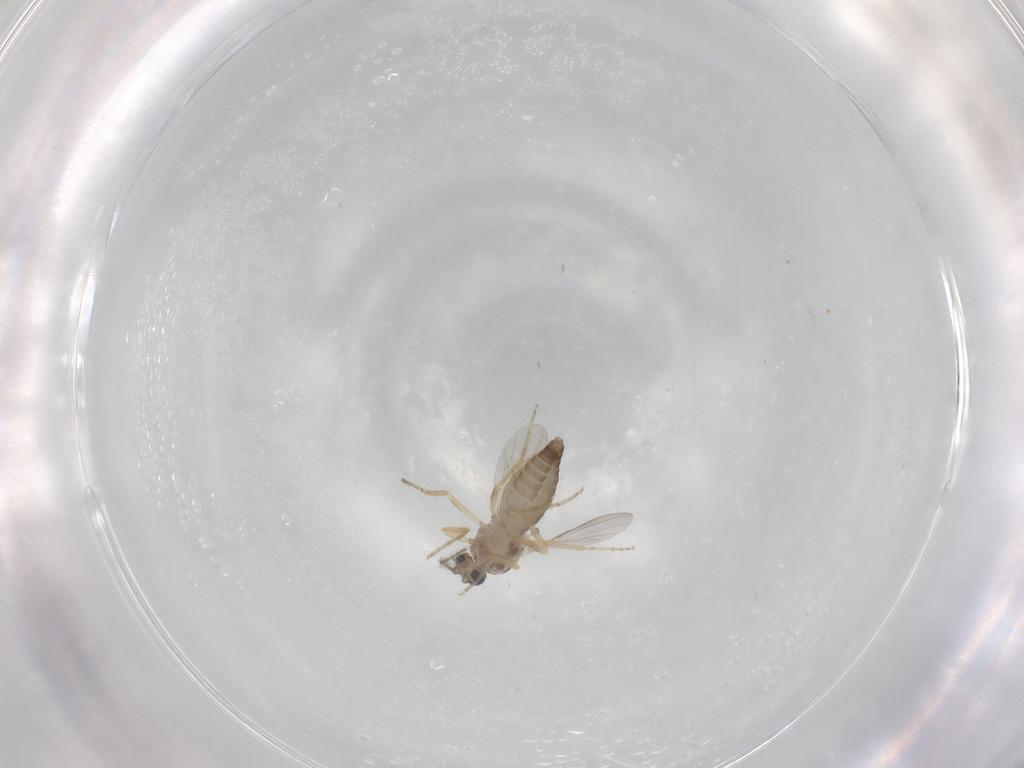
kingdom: Animalia
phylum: Arthropoda
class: Insecta
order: Diptera
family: Ceratopogonidae
